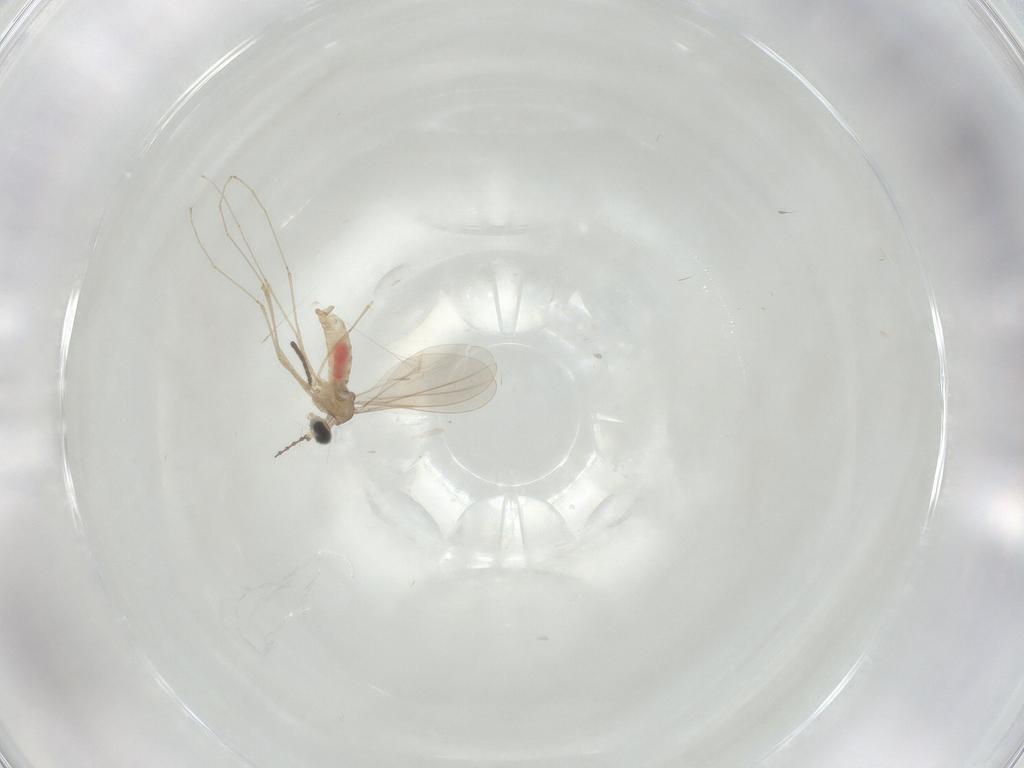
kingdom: Animalia
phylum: Arthropoda
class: Insecta
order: Diptera
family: Cecidomyiidae
